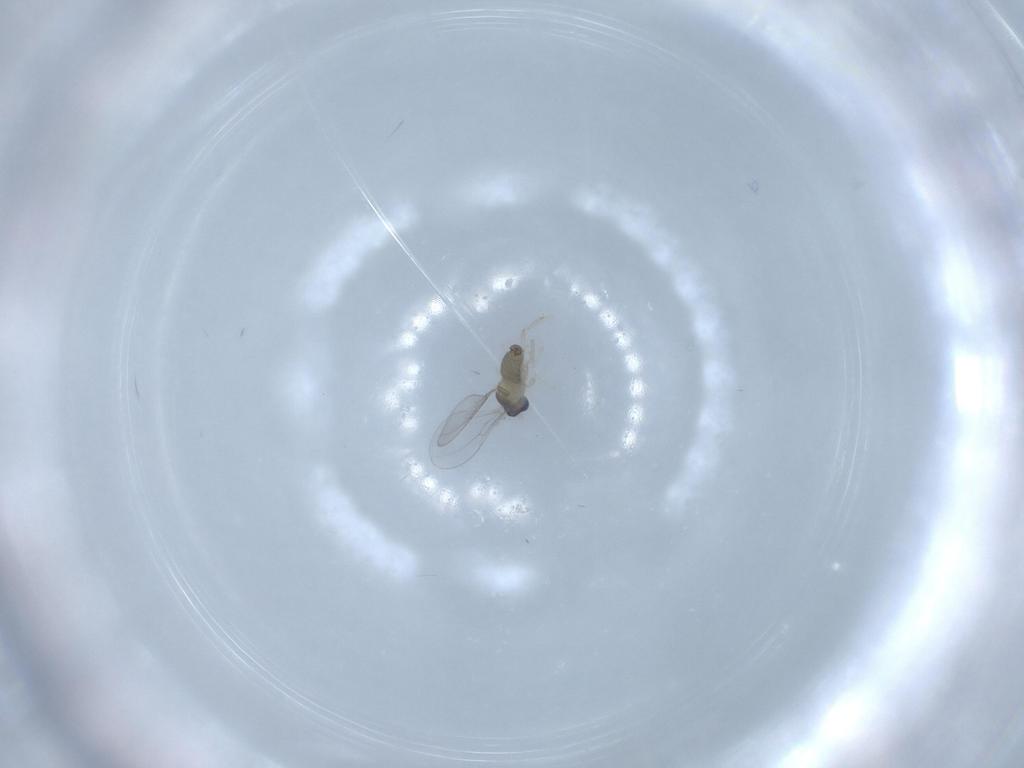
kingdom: Animalia
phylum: Arthropoda
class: Insecta
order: Diptera
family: Cecidomyiidae
